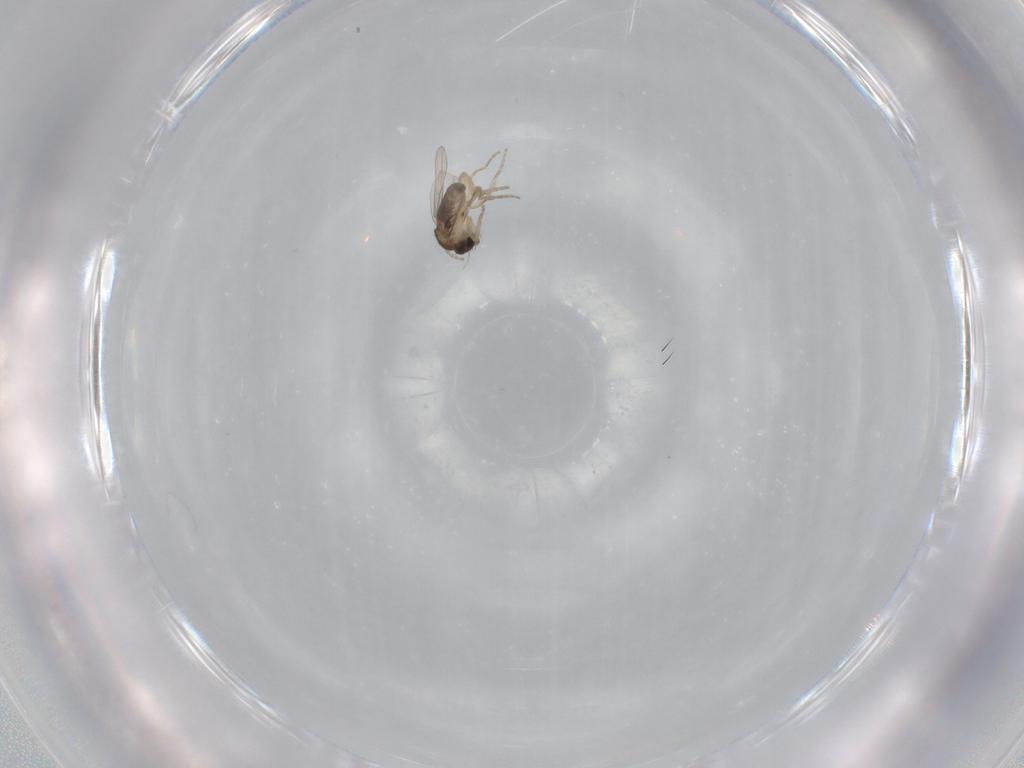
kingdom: Animalia
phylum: Arthropoda
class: Insecta
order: Diptera
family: Phoridae
